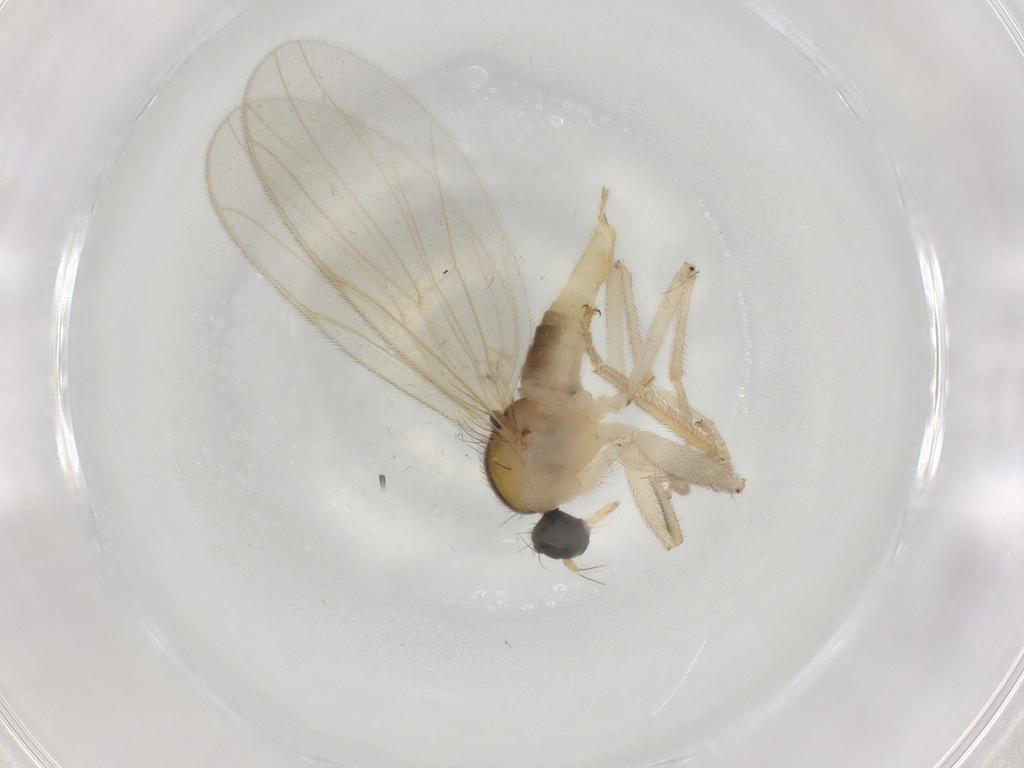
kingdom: Animalia
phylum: Arthropoda
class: Insecta
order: Diptera
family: Hybotidae
